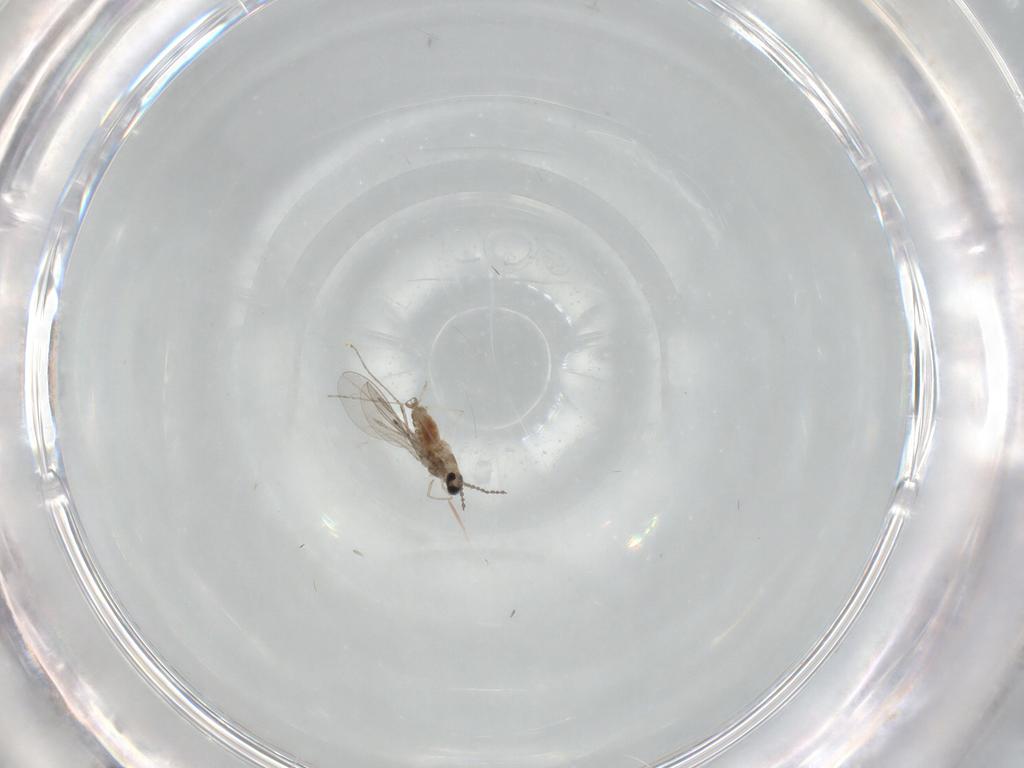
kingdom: Animalia
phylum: Arthropoda
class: Insecta
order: Diptera
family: Cecidomyiidae
